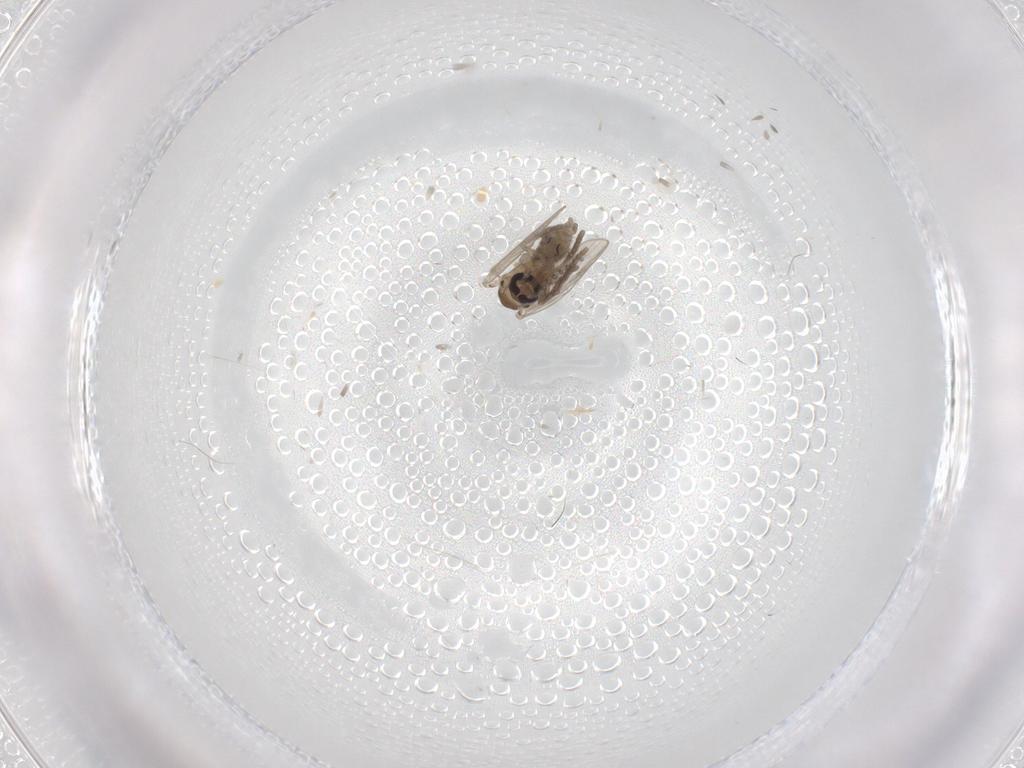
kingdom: Animalia
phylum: Arthropoda
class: Insecta
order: Diptera
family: Psychodidae
